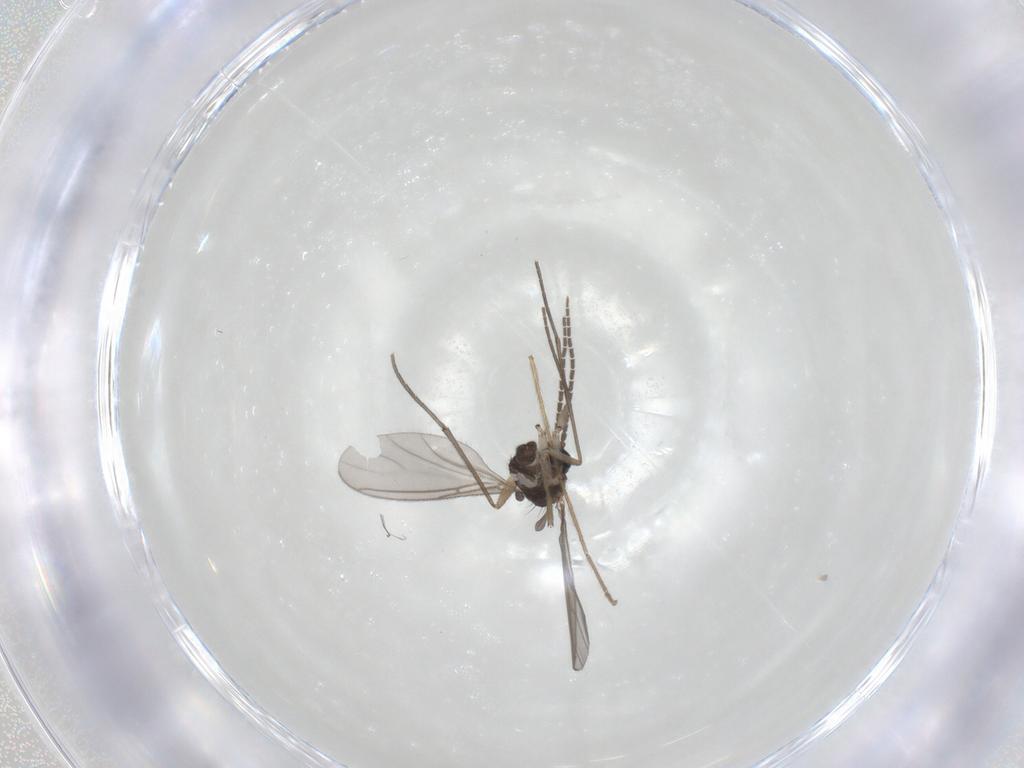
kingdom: Animalia
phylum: Arthropoda
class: Insecta
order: Diptera
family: Sciaridae
